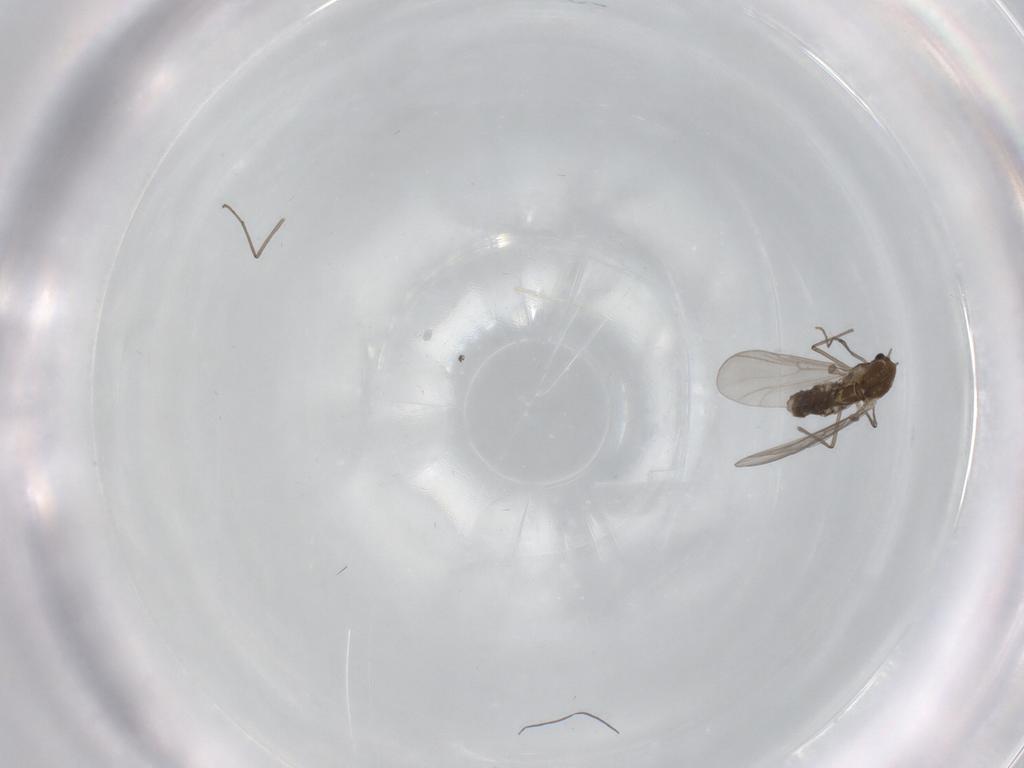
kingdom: Animalia
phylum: Arthropoda
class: Insecta
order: Diptera
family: Chironomidae
